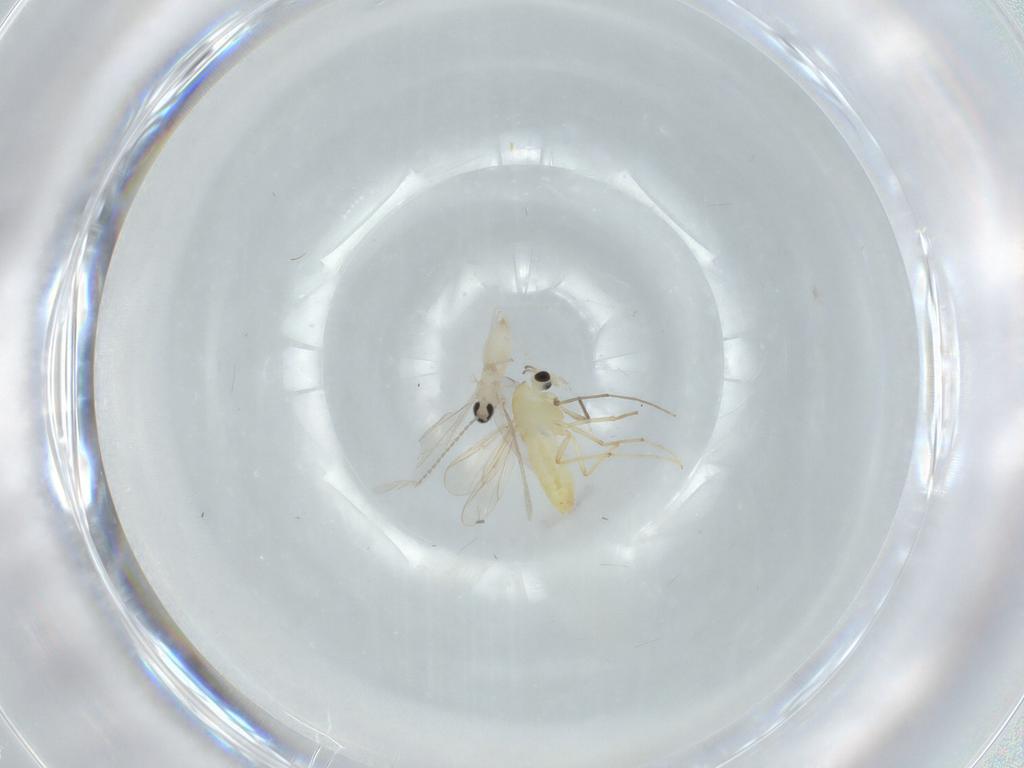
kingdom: Animalia
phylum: Arthropoda
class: Insecta
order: Diptera
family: Chironomidae
